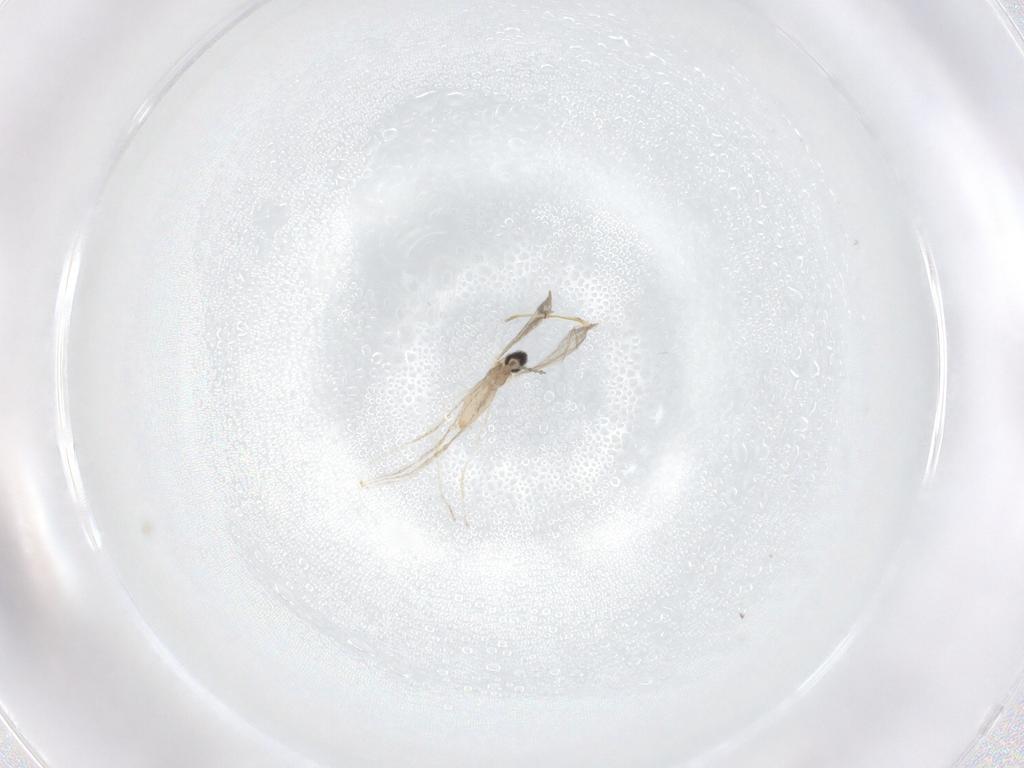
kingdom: Animalia
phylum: Arthropoda
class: Insecta
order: Diptera
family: Cecidomyiidae
